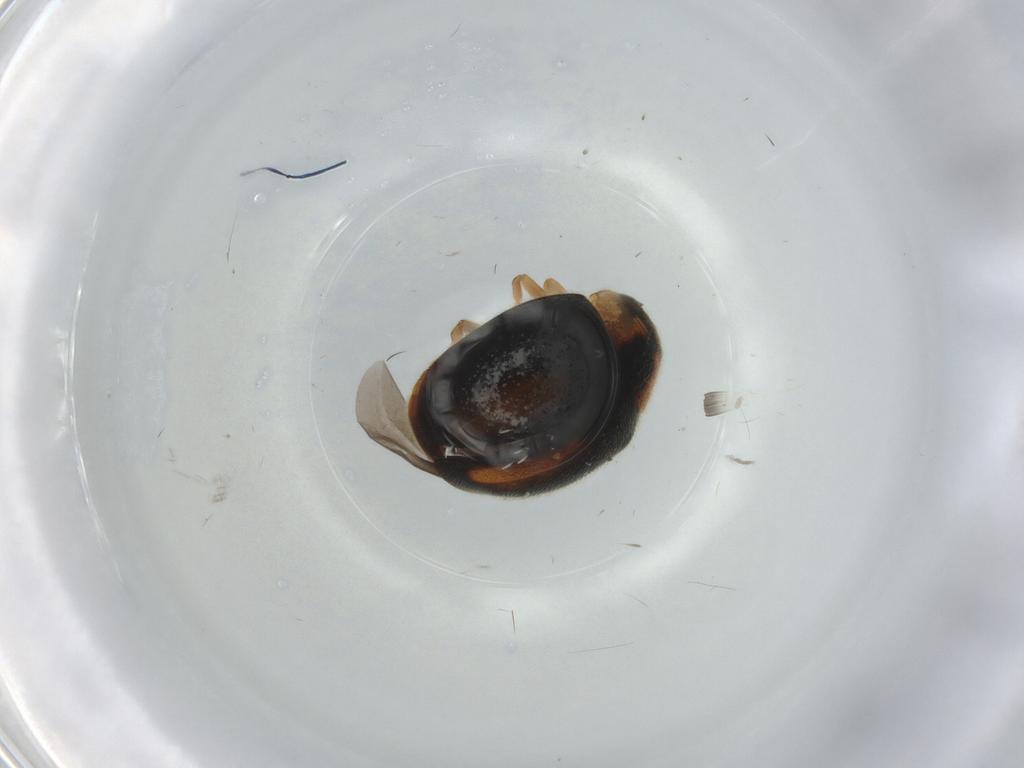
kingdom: Animalia
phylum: Arthropoda
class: Insecta
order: Coleoptera
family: Coccinellidae
